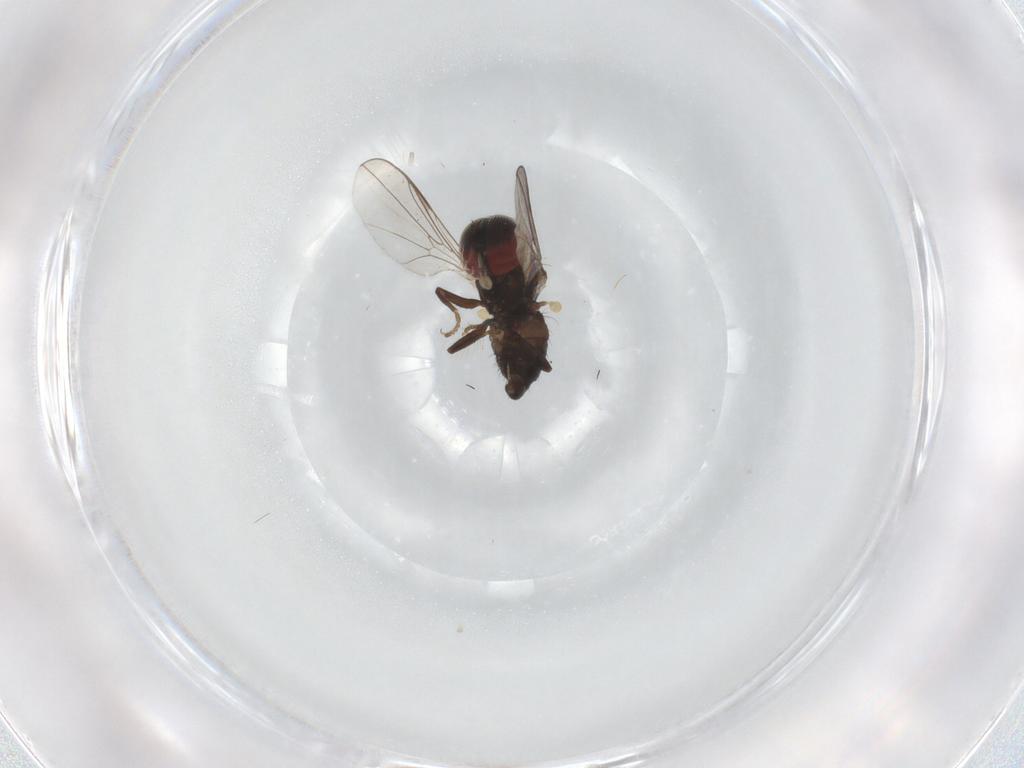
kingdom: Animalia
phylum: Arthropoda
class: Insecta
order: Diptera
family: Pipunculidae
